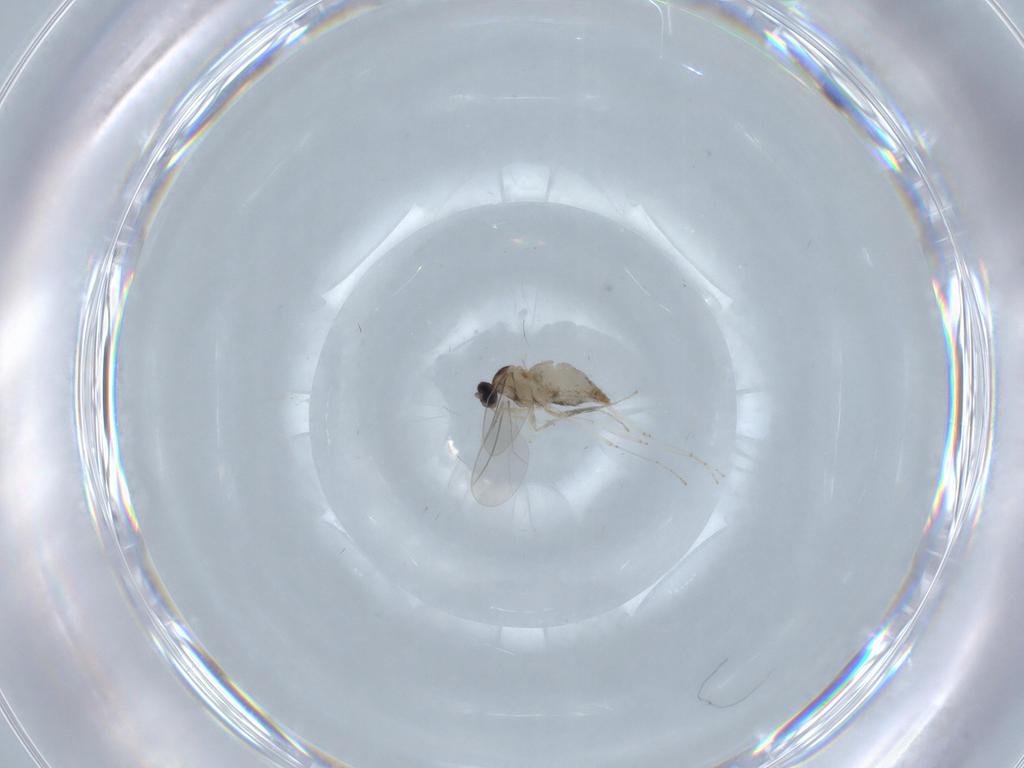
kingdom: Animalia
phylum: Arthropoda
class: Insecta
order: Diptera
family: Cecidomyiidae
